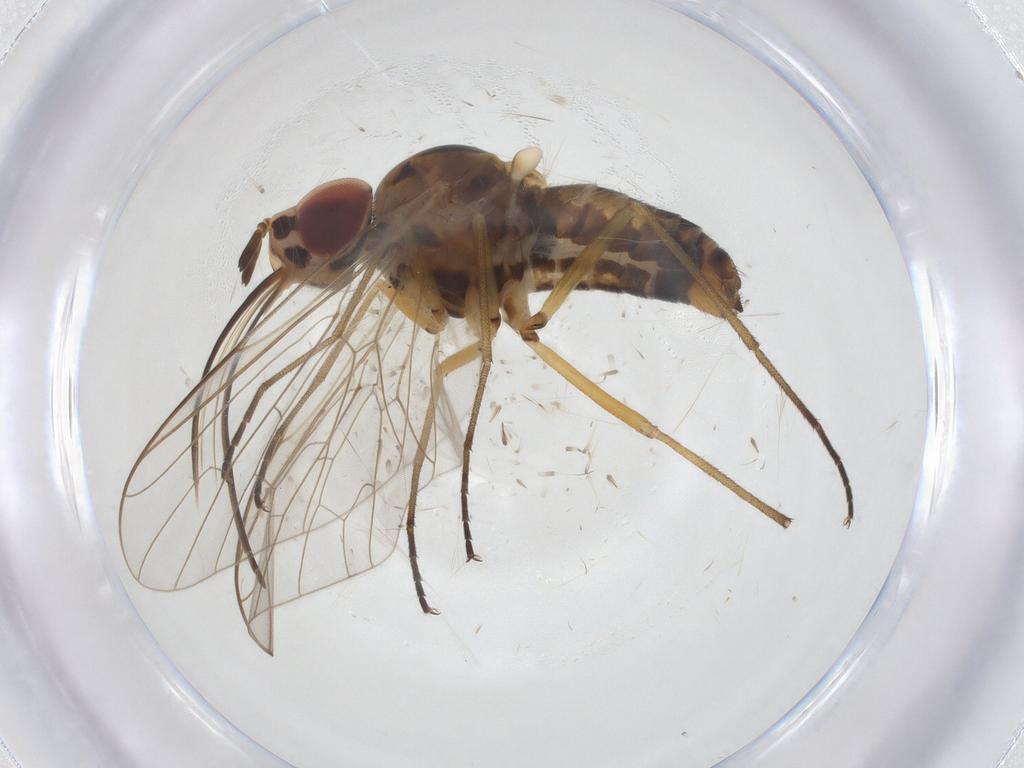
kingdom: Animalia
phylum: Arthropoda
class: Insecta
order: Diptera
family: Bombyliidae
